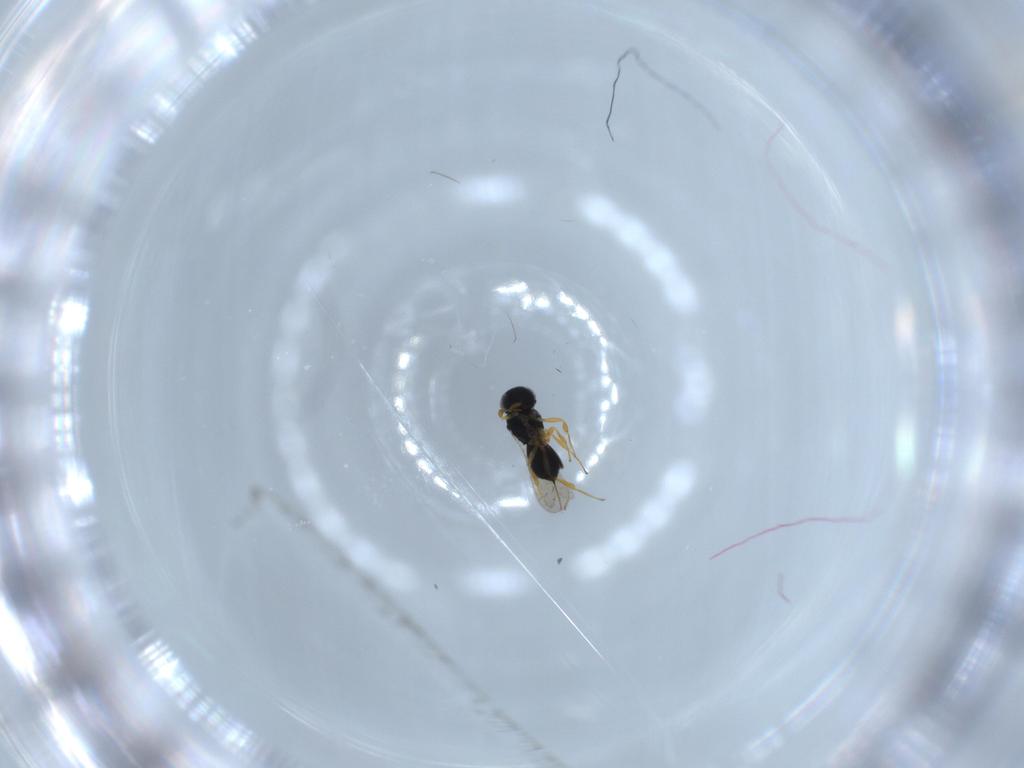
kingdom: Animalia
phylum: Arthropoda
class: Insecta
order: Hymenoptera
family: Scelionidae
